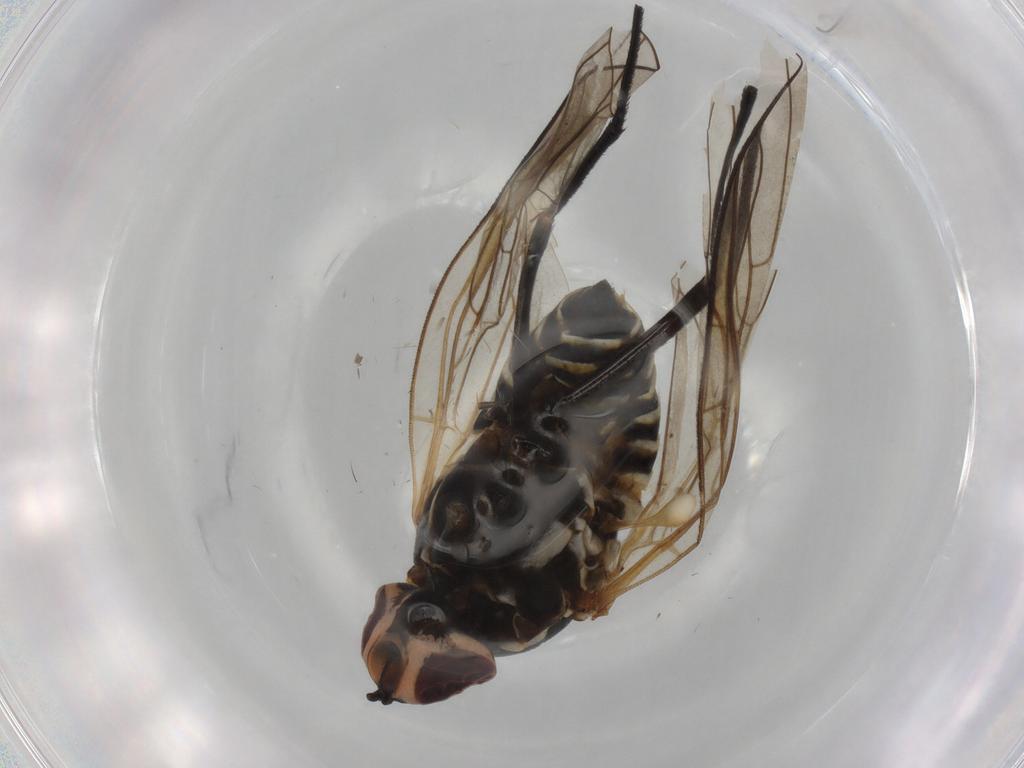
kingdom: Animalia
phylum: Arthropoda
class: Insecta
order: Diptera
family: Bombyliidae
